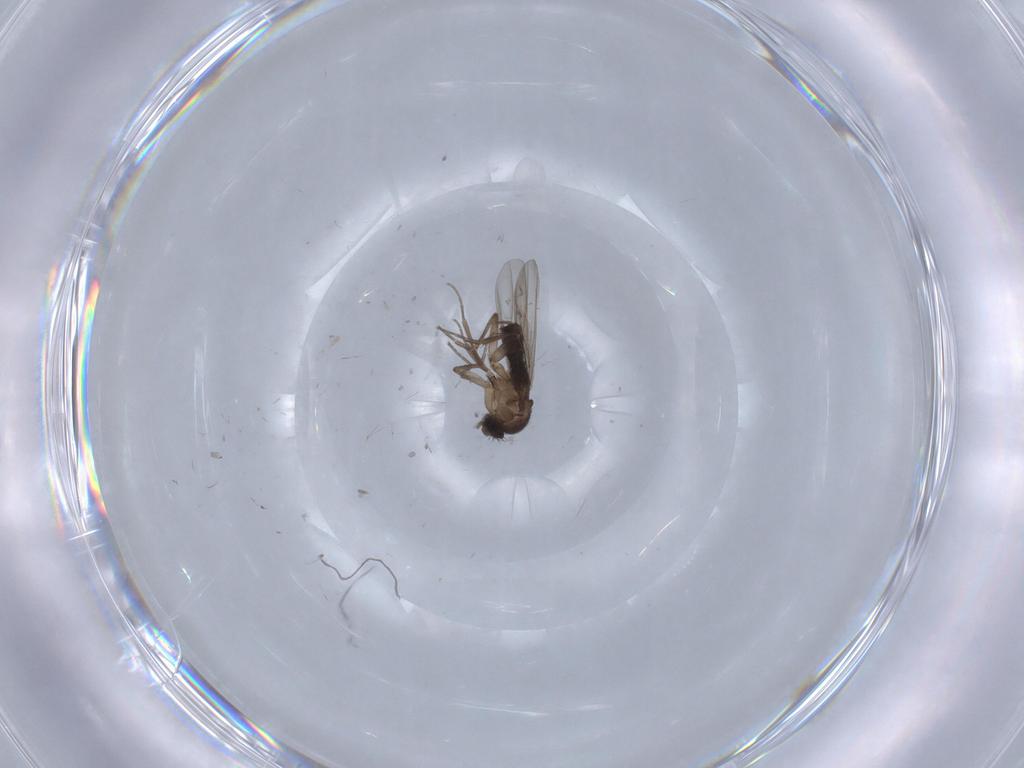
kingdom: Animalia
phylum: Arthropoda
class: Insecta
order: Diptera
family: Phoridae
